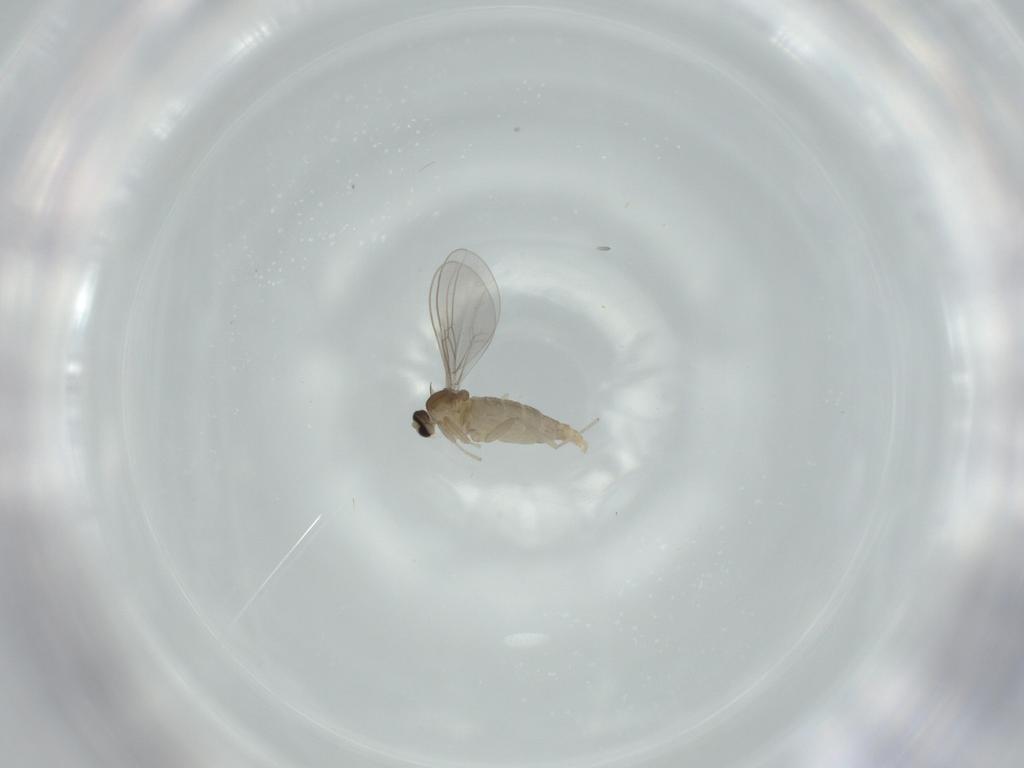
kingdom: Animalia
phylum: Arthropoda
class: Insecta
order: Diptera
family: Psychodidae
